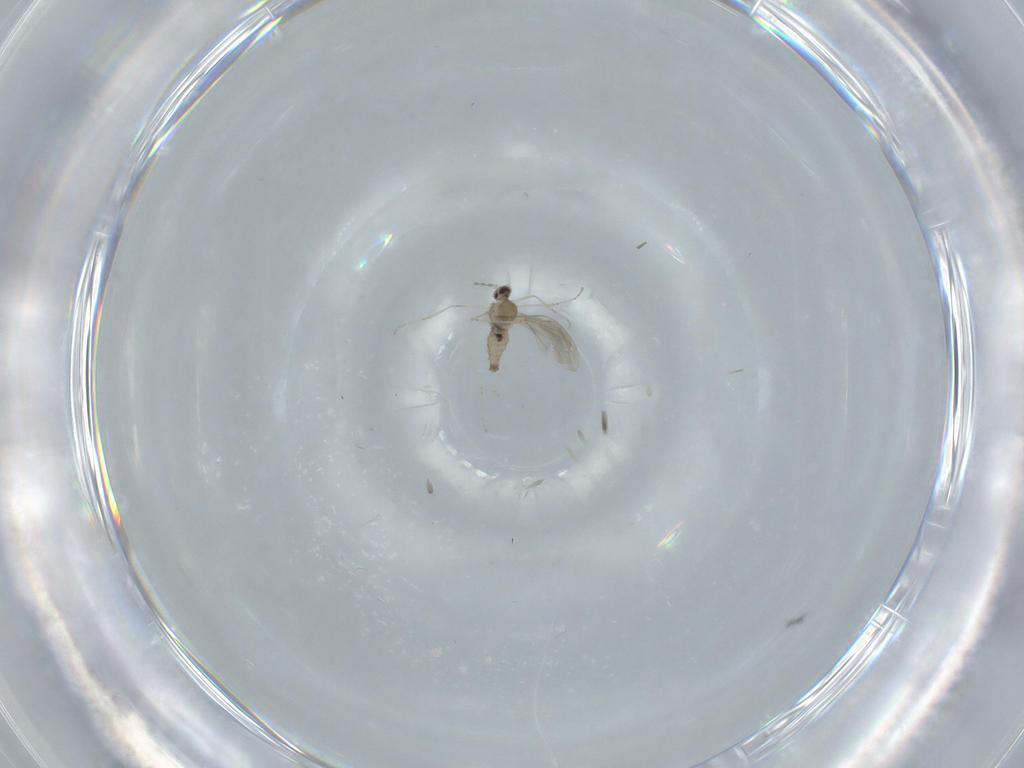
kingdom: Animalia
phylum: Arthropoda
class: Insecta
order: Diptera
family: Cecidomyiidae
